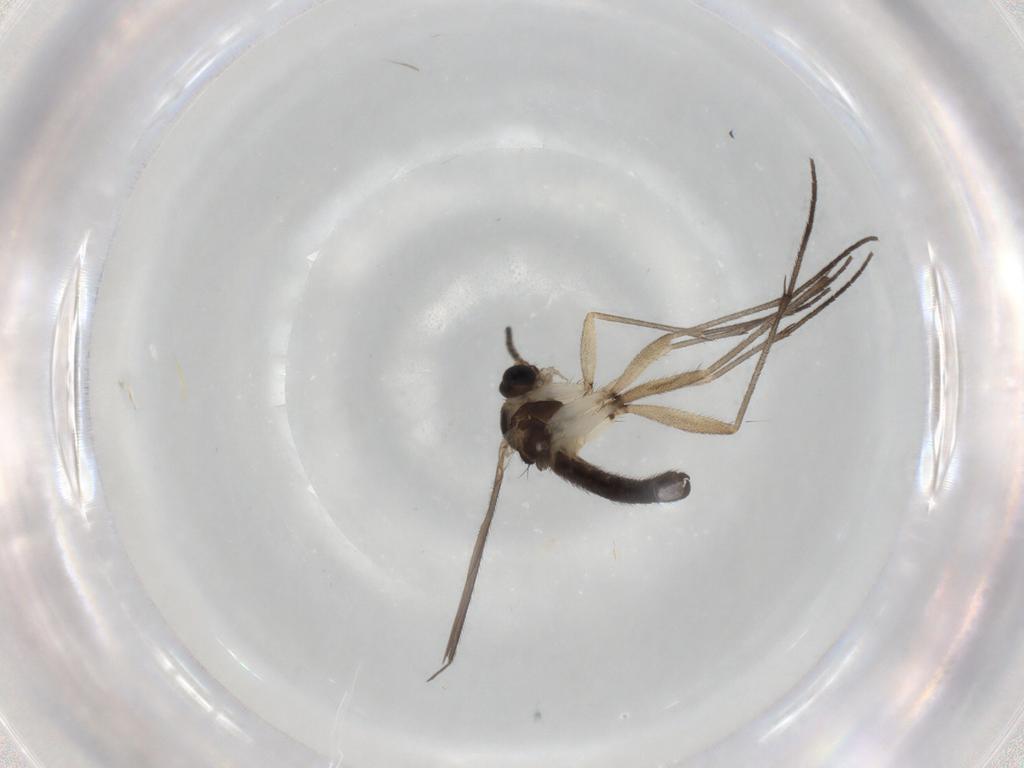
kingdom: Animalia
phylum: Arthropoda
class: Insecta
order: Diptera
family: Sciaridae
